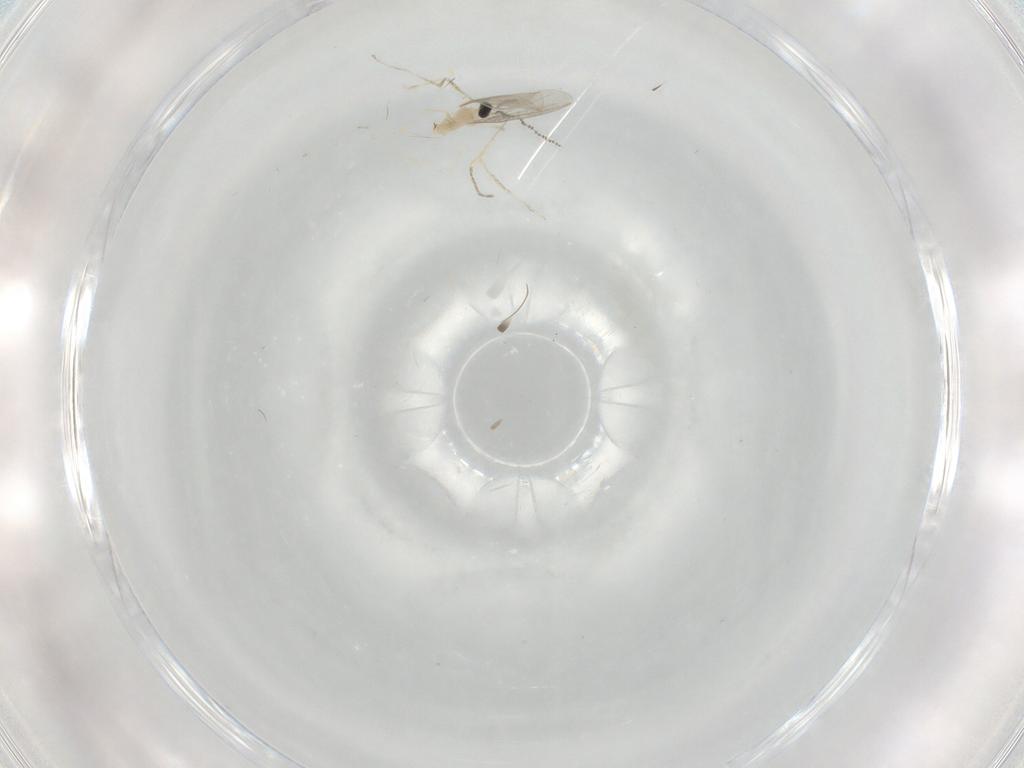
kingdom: Animalia
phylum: Arthropoda
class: Insecta
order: Diptera
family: Cecidomyiidae
